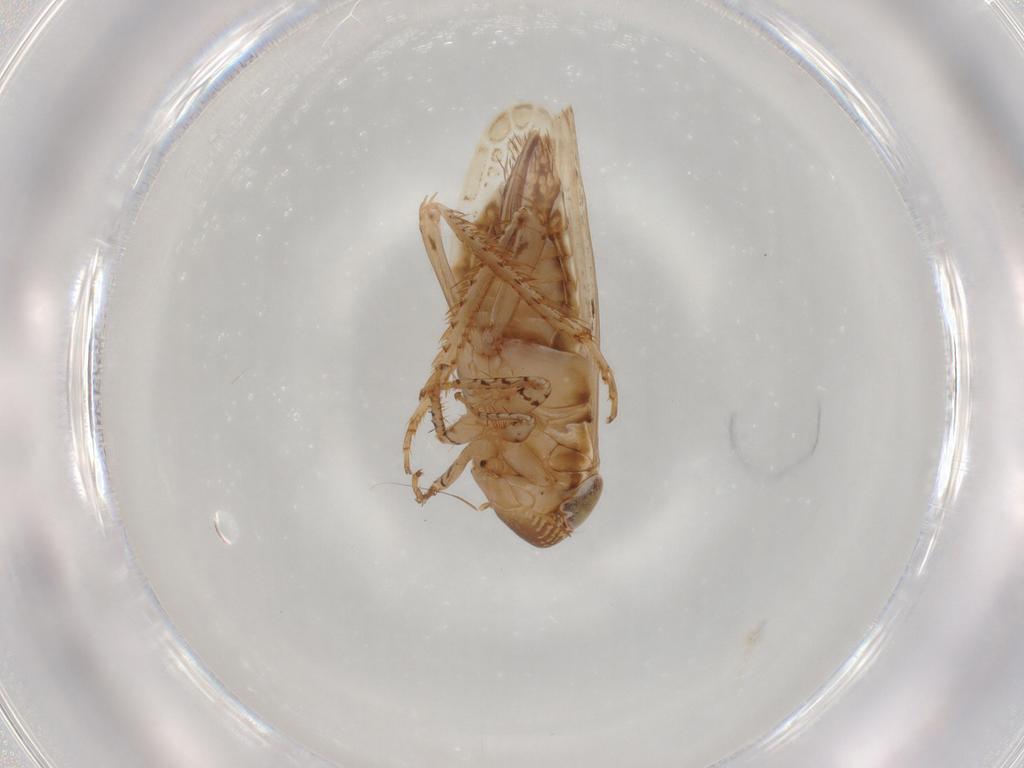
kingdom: Animalia
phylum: Arthropoda
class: Insecta
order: Hemiptera
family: Cicadellidae
